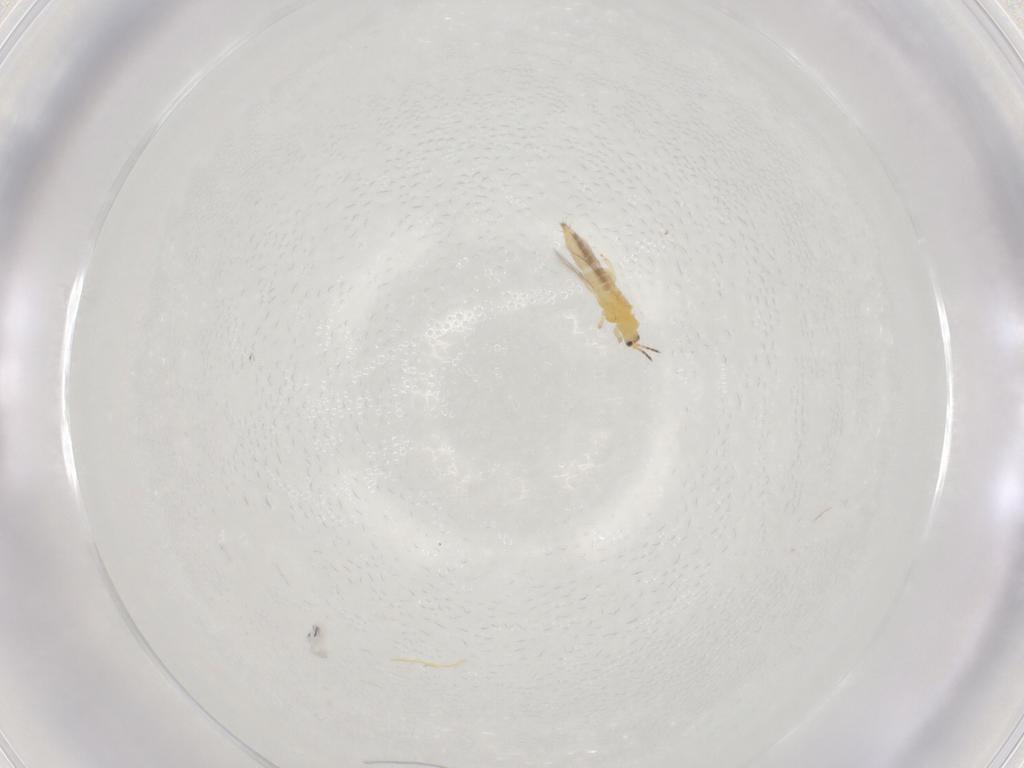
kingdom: Animalia
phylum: Arthropoda
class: Insecta
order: Thysanoptera
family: Thripidae
